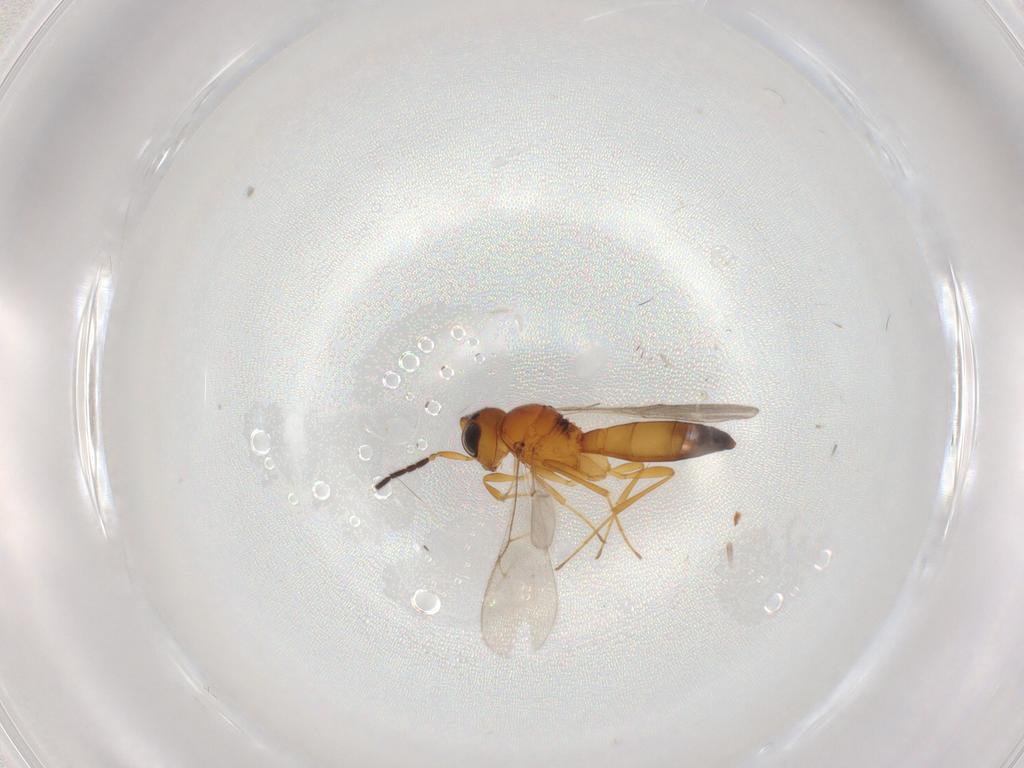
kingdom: Animalia
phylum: Arthropoda
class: Insecta
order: Hymenoptera
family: Scelionidae
